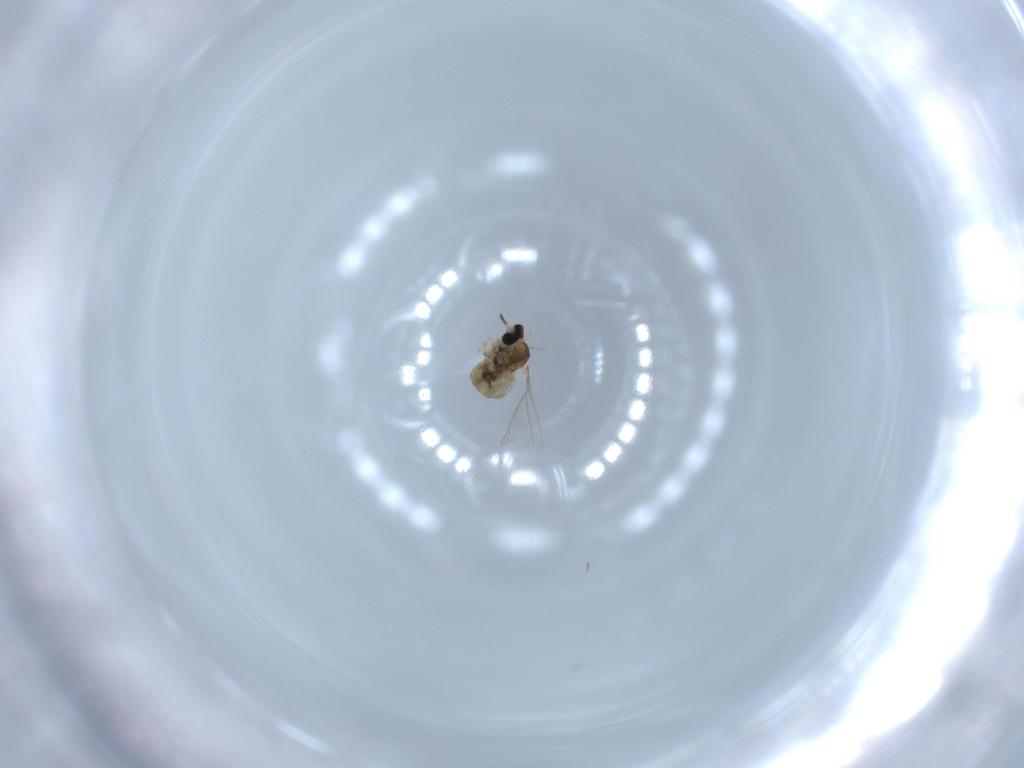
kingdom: Animalia
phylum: Arthropoda
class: Insecta
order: Diptera
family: Cecidomyiidae
